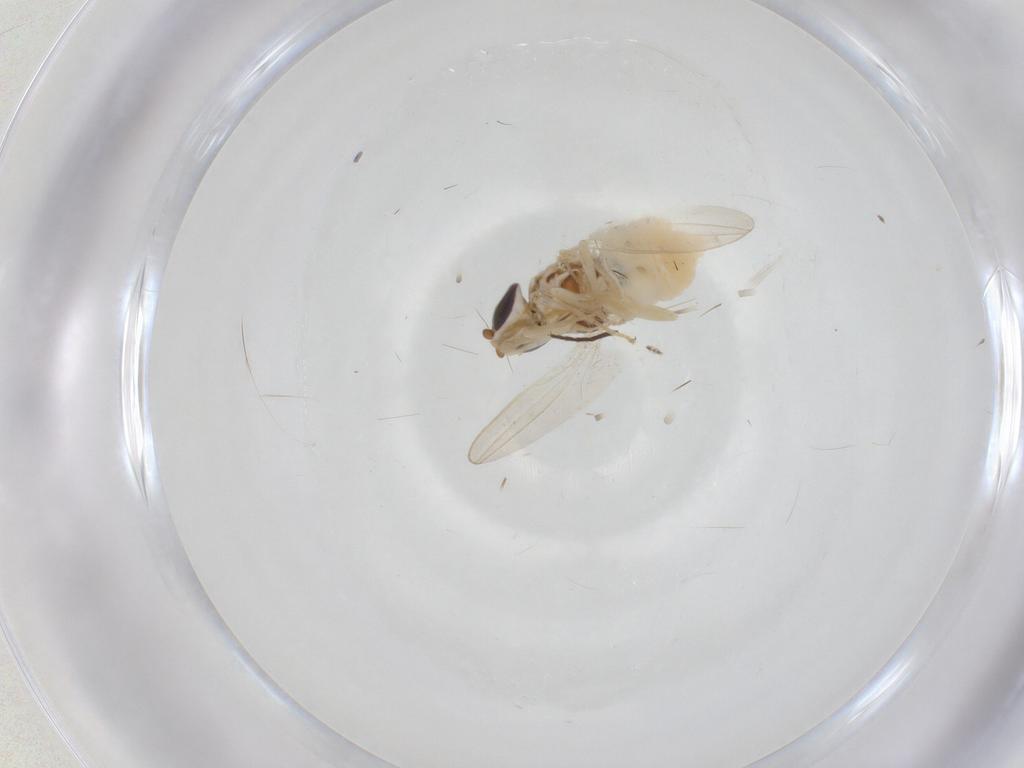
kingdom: Animalia
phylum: Arthropoda
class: Insecta
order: Diptera
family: Chloropidae
